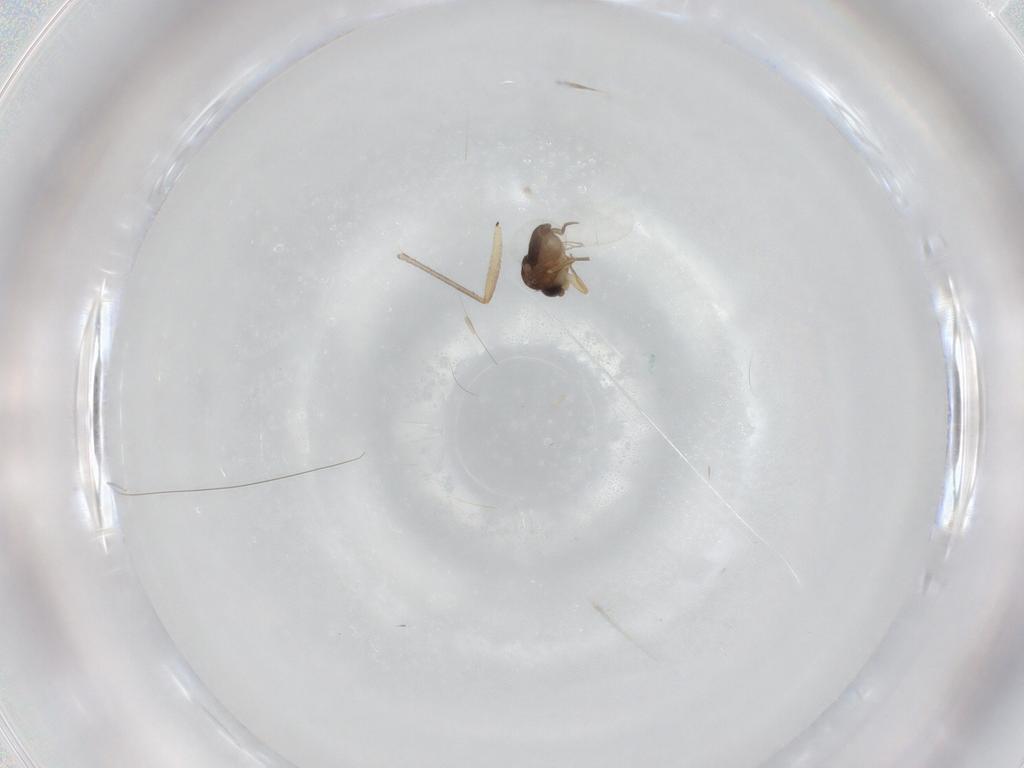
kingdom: Animalia
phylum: Arthropoda
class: Insecta
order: Diptera
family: Phoridae
